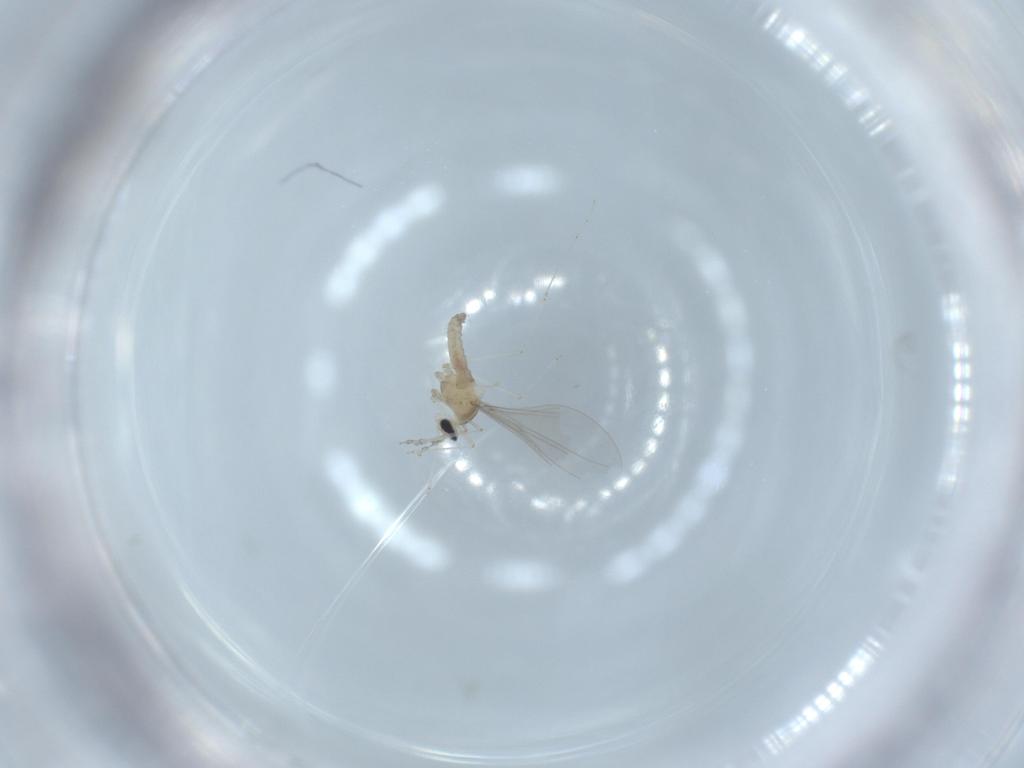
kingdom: Animalia
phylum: Arthropoda
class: Insecta
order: Diptera
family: Cecidomyiidae
